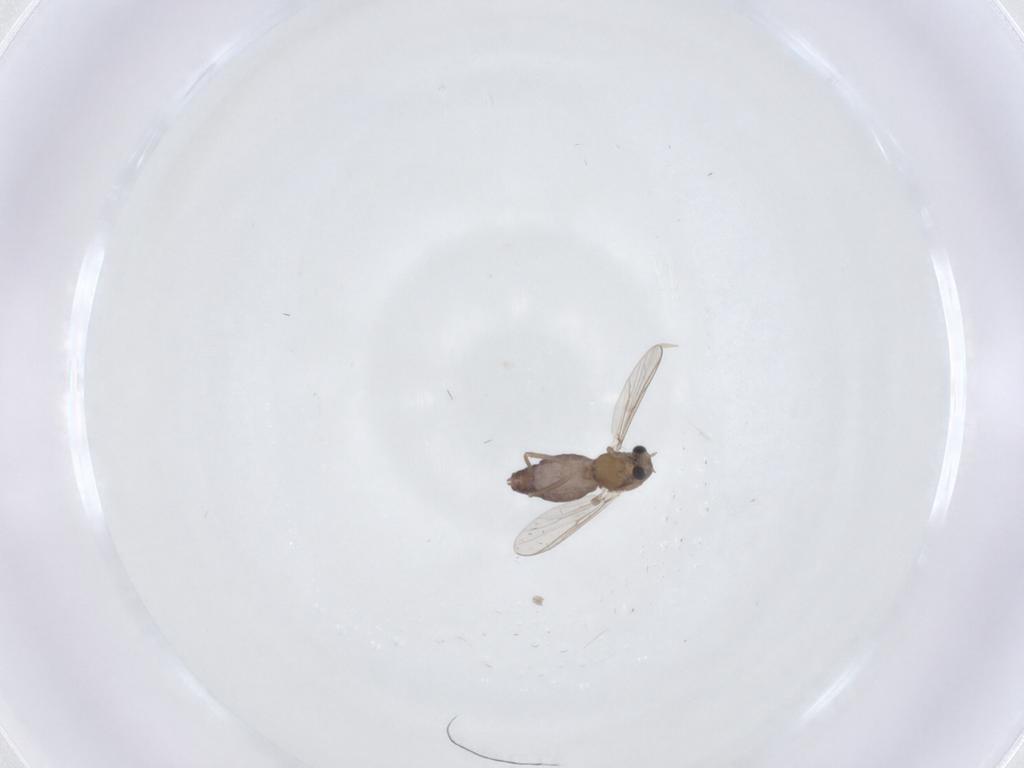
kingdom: Animalia
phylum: Arthropoda
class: Insecta
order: Diptera
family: Chironomidae
